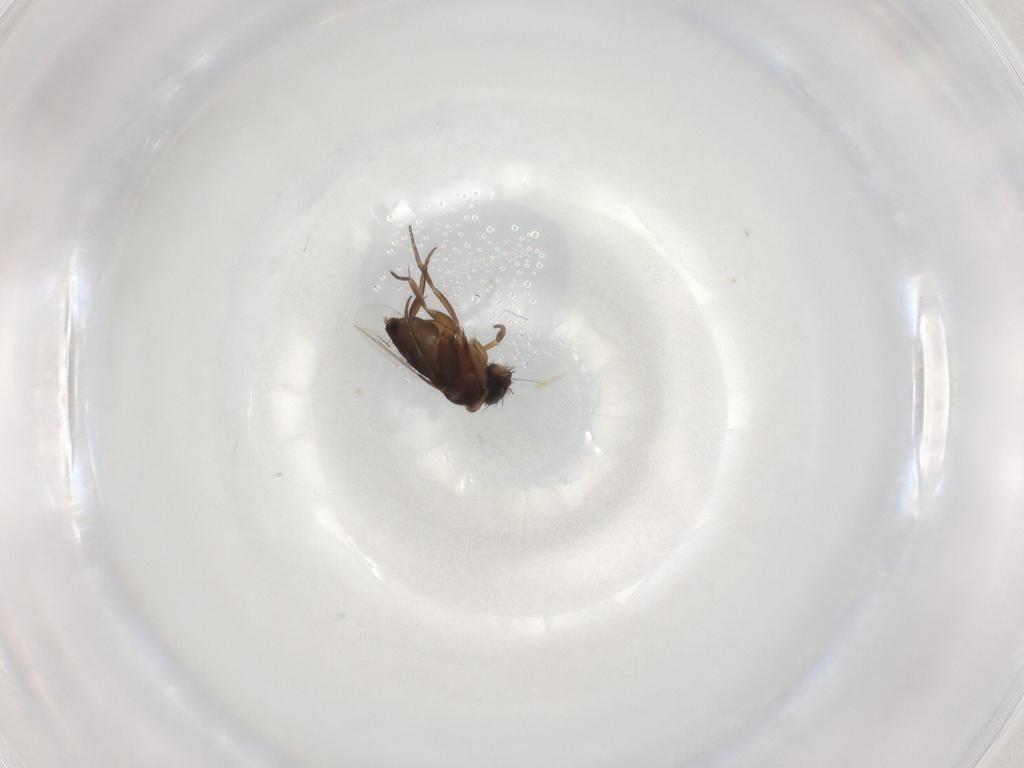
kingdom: Animalia
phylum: Arthropoda
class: Insecta
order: Diptera
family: Phoridae
